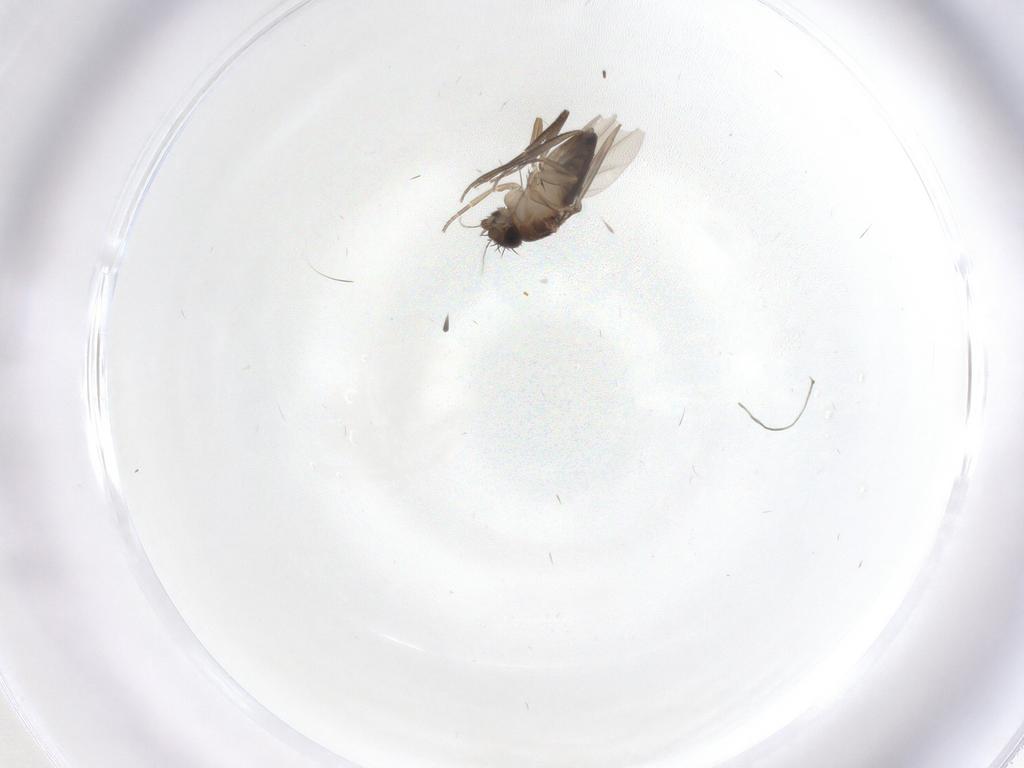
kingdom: Animalia
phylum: Arthropoda
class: Insecta
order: Diptera
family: Phoridae
